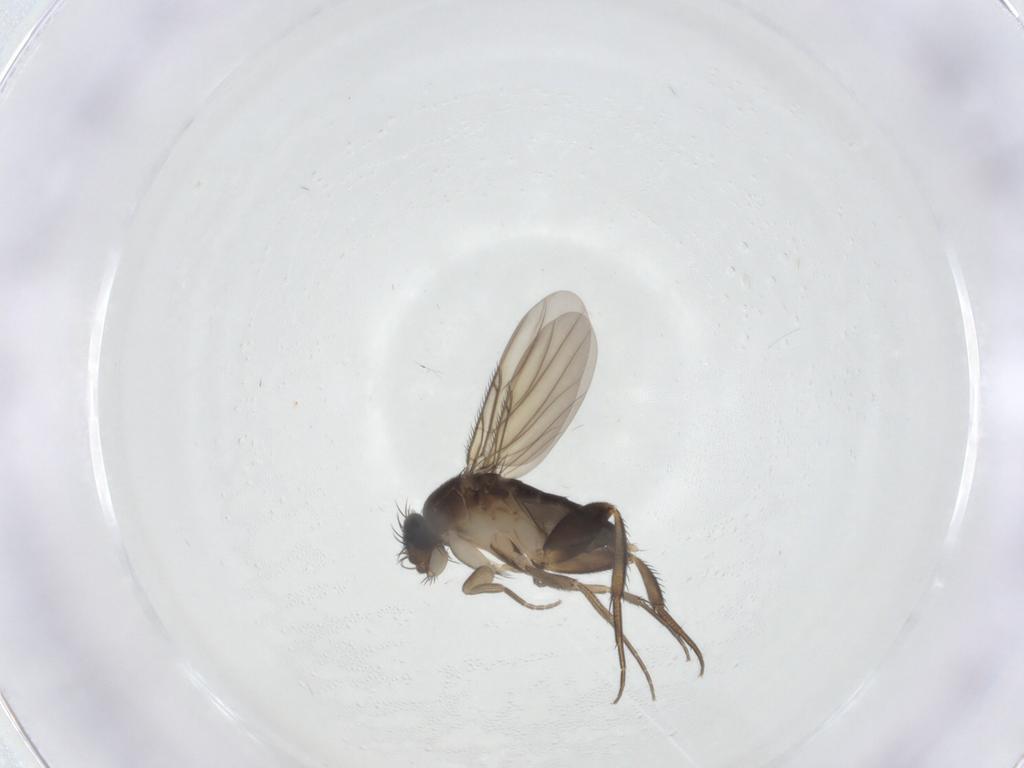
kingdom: Animalia
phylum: Arthropoda
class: Insecta
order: Diptera
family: Phoridae
